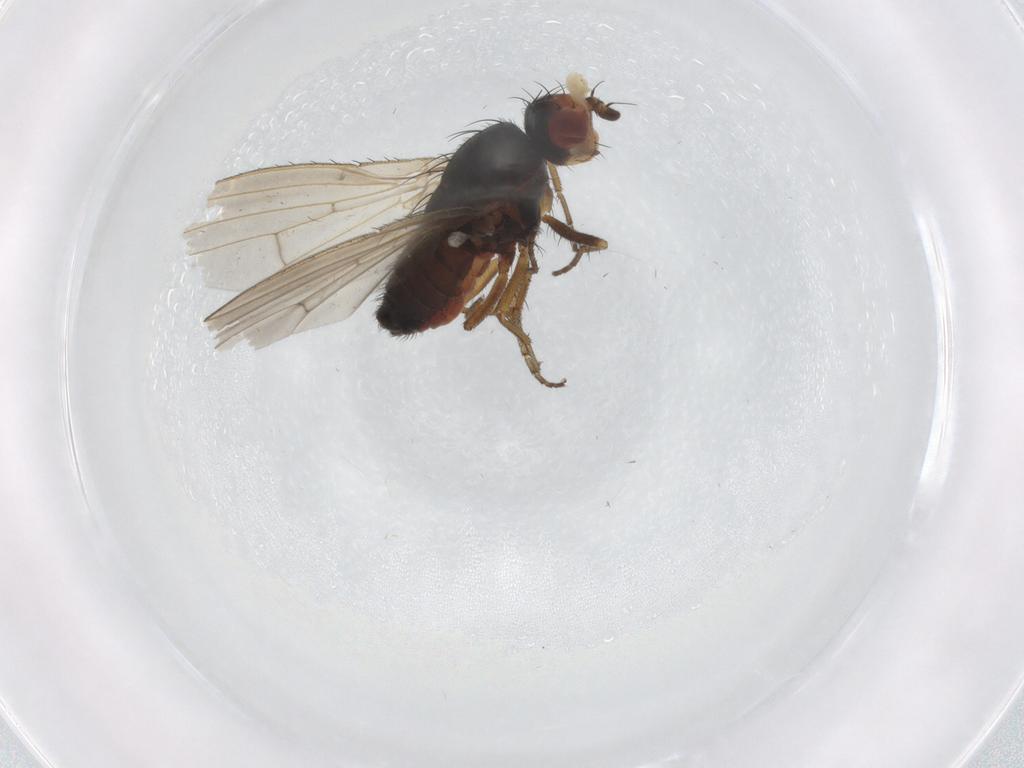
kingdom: Animalia
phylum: Arthropoda
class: Insecta
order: Diptera
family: Heleomyzidae
